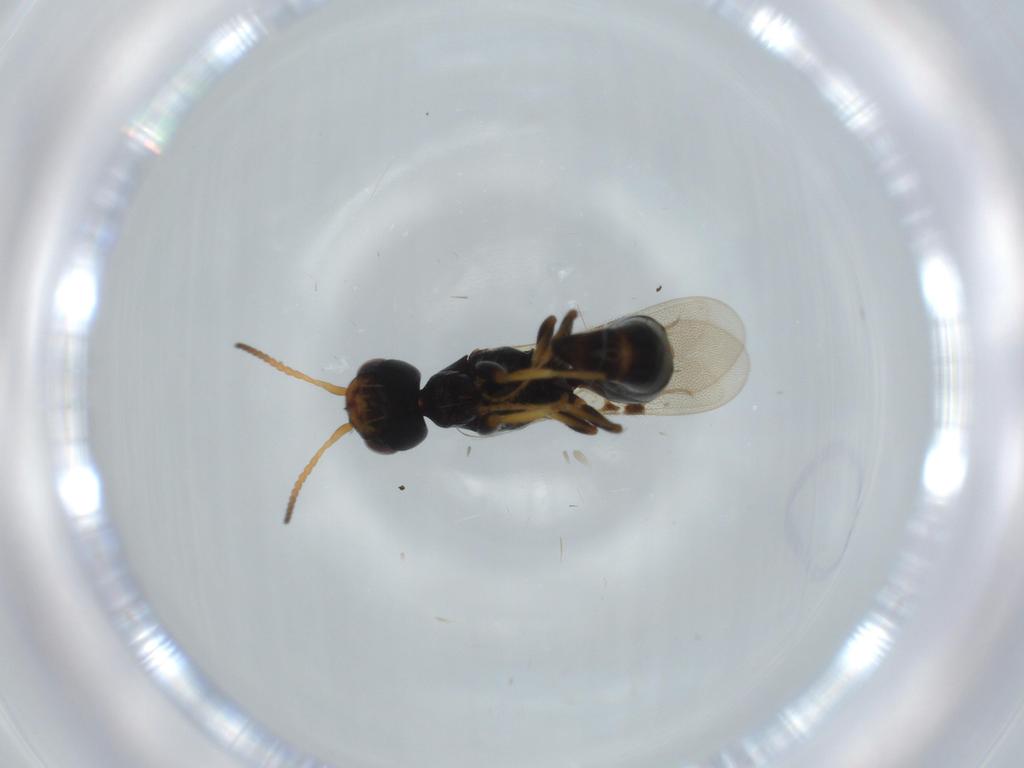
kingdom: Animalia
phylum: Arthropoda
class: Insecta
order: Hymenoptera
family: Bethylidae
